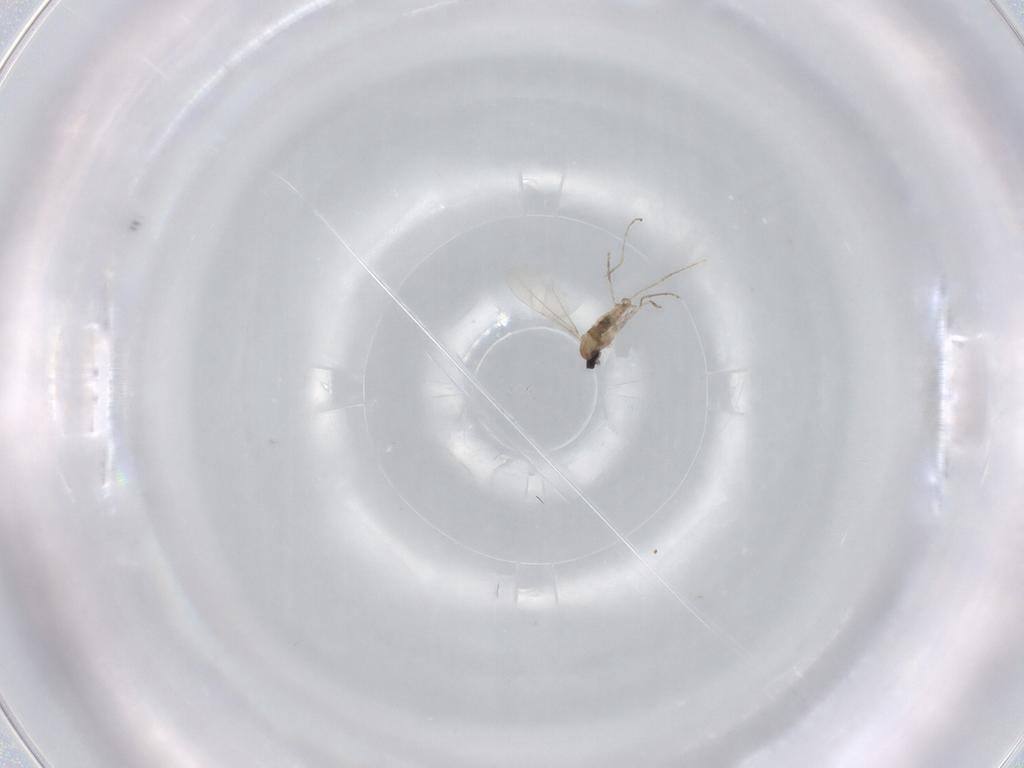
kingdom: Animalia
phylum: Arthropoda
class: Insecta
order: Diptera
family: Cecidomyiidae
